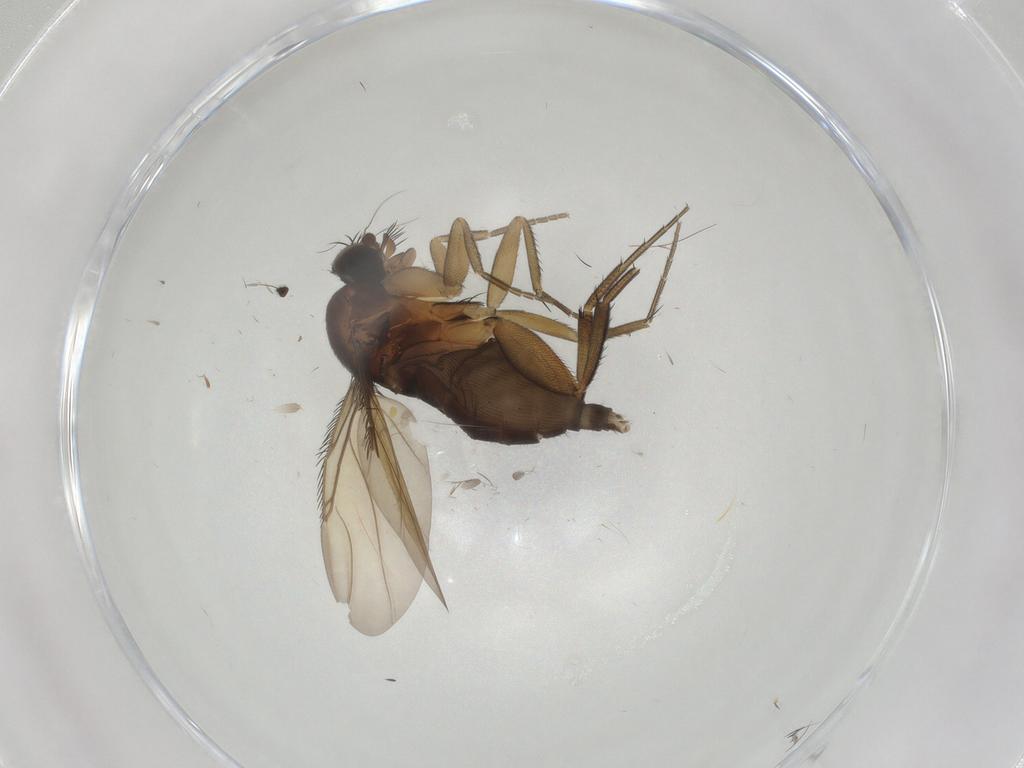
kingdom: Animalia
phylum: Arthropoda
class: Insecta
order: Diptera
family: Phoridae
